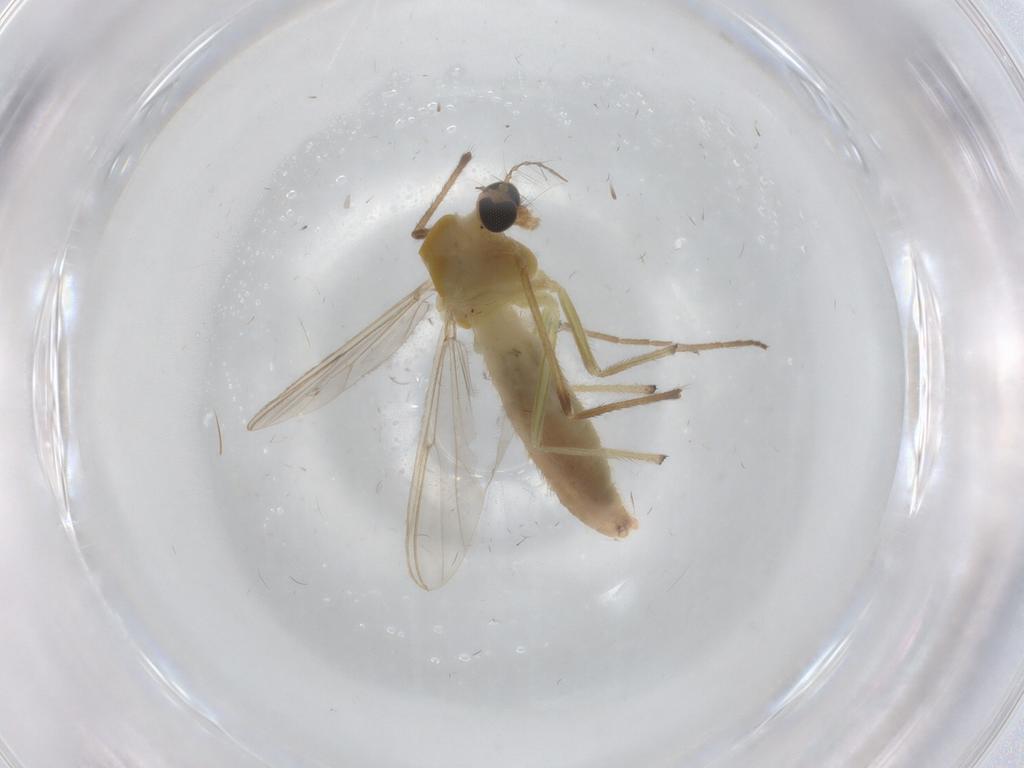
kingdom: Animalia
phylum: Arthropoda
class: Insecta
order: Diptera
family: Chironomidae
